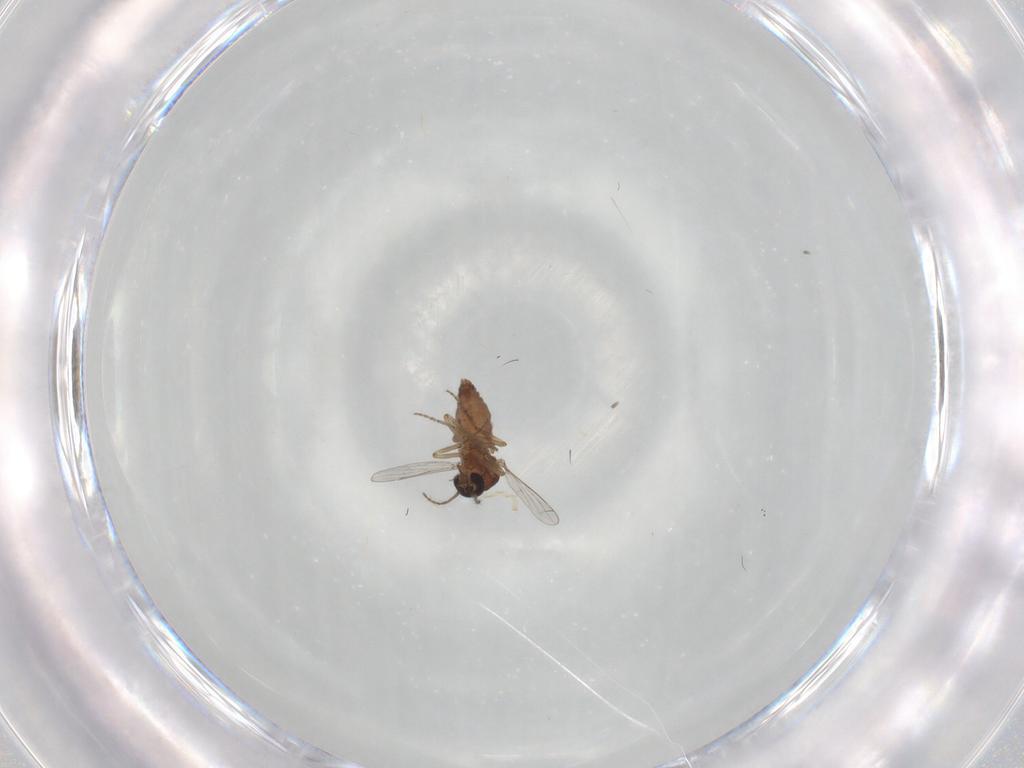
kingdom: Animalia
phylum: Arthropoda
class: Insecta
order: Diptera
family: Ceratopogonidae
